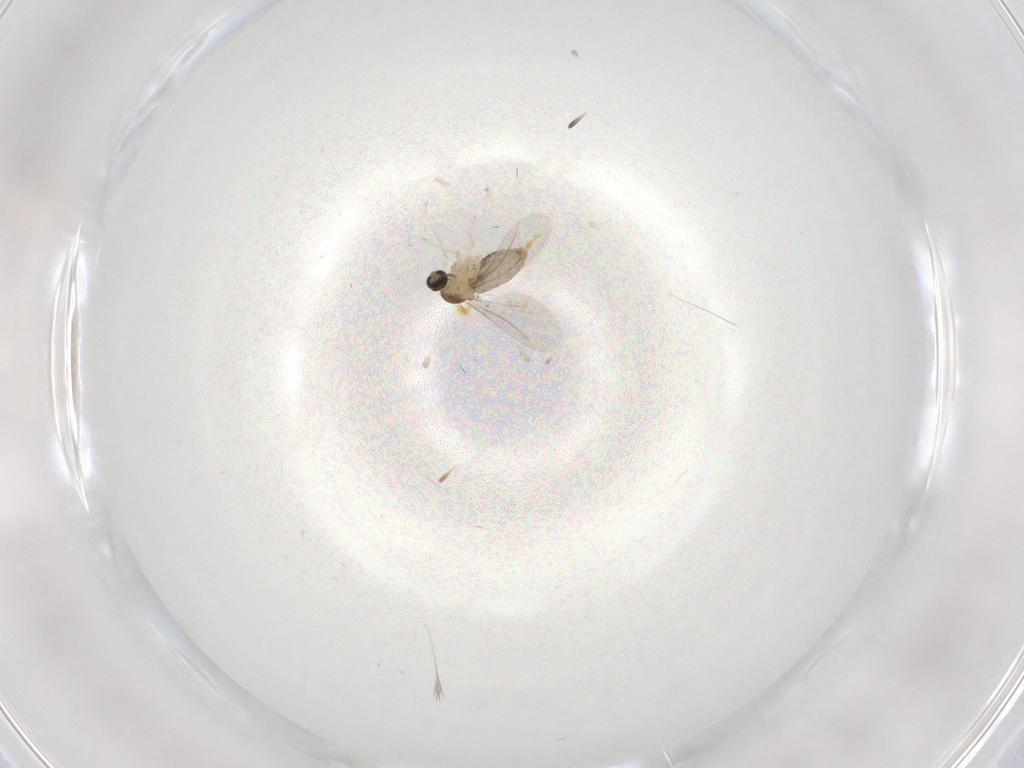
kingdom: Animalia
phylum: Arthropoda
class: Insecta
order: Diptera
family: Cecidomyiidae
